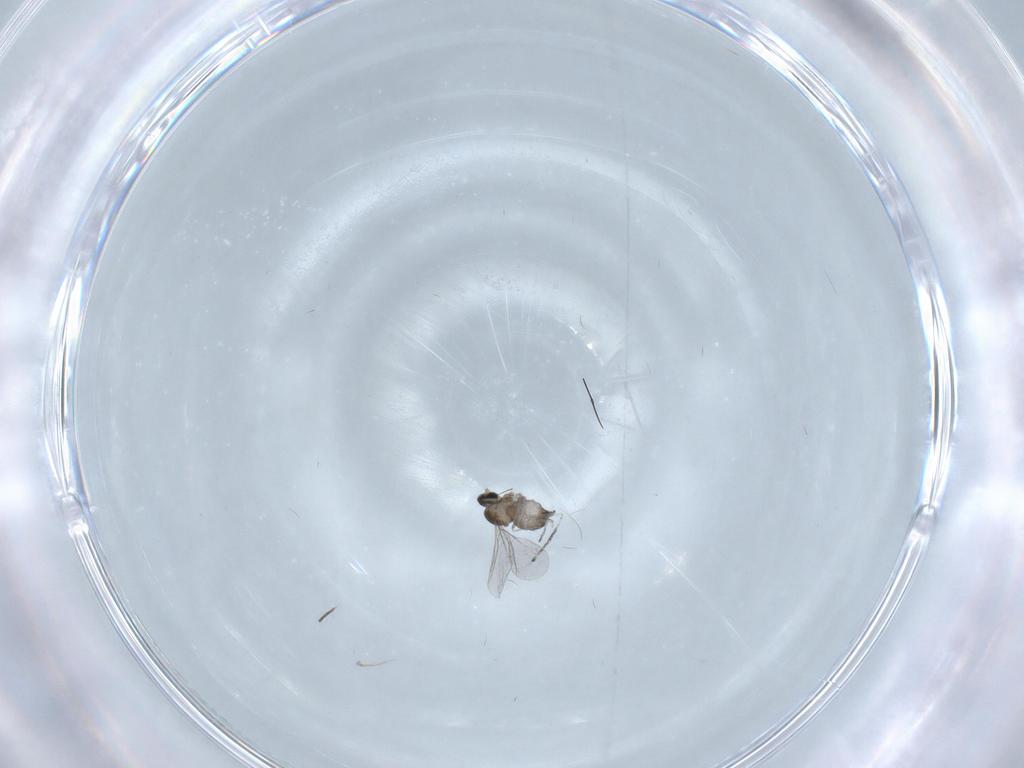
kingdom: Animalia
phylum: Arthropoda
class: Insecta
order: Diptera
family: Cecidomyiidae
